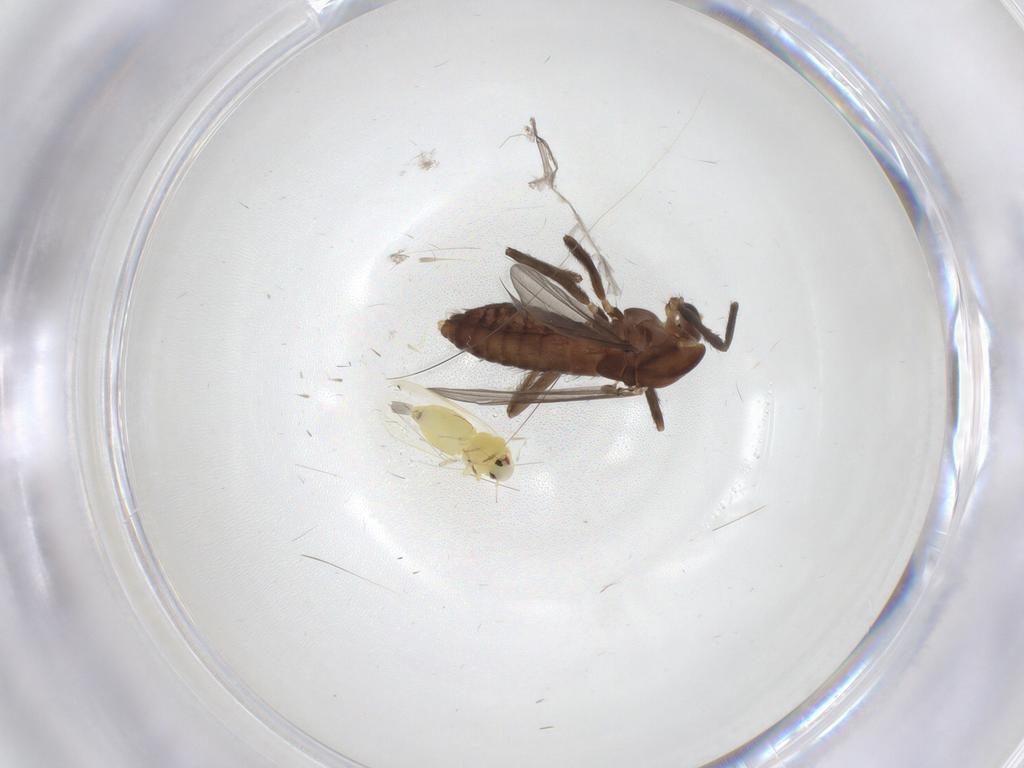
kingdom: Animalia
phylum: Arthropoda
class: Insecta
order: Diptera
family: Chironomidae
